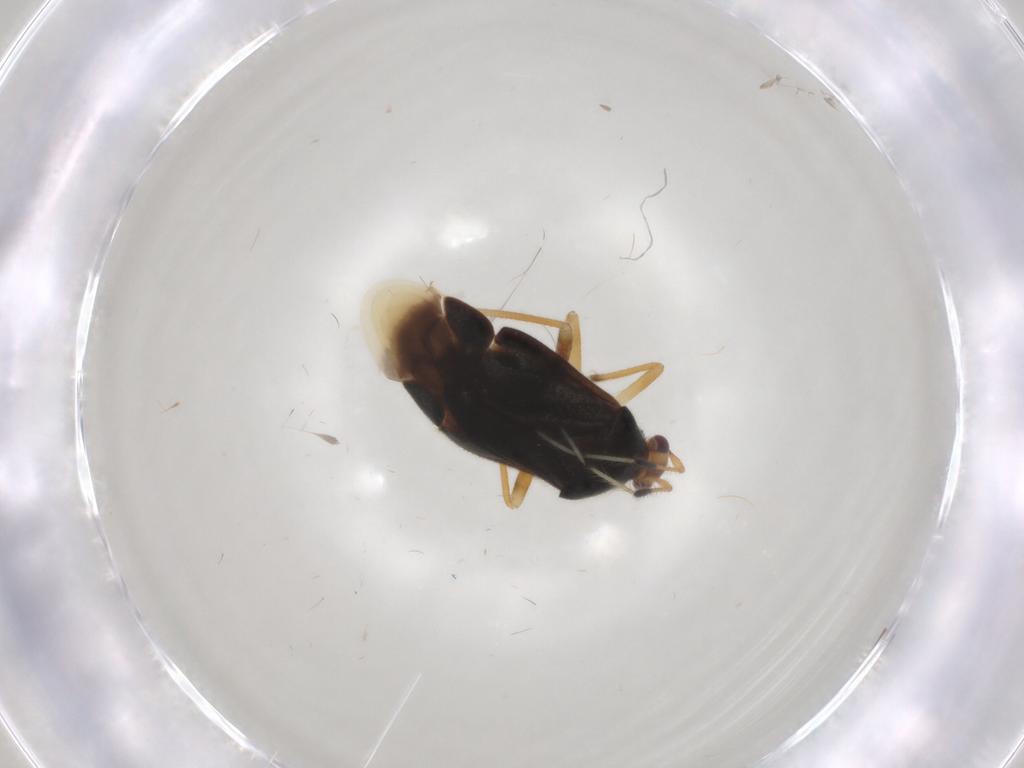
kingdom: Animalia
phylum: Arthropoda
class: Insecta
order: Hemiptera
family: Miridae
